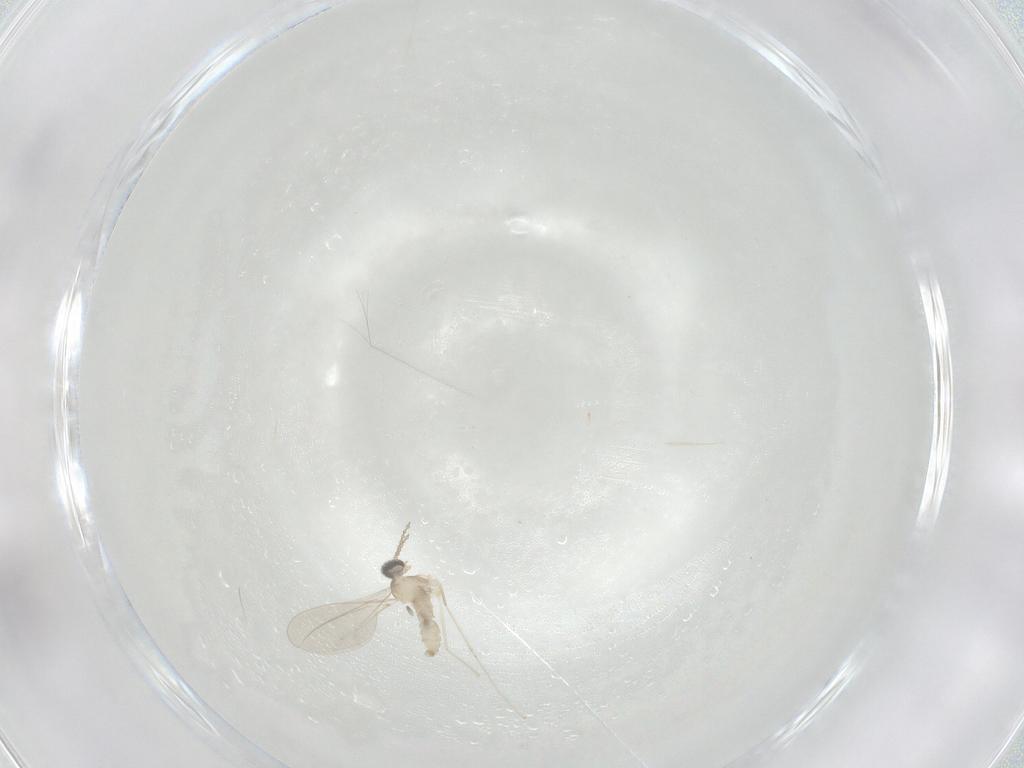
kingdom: Animalia
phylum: Arthropoda
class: Insecta
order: Diptera
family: Cecidomyiidae
